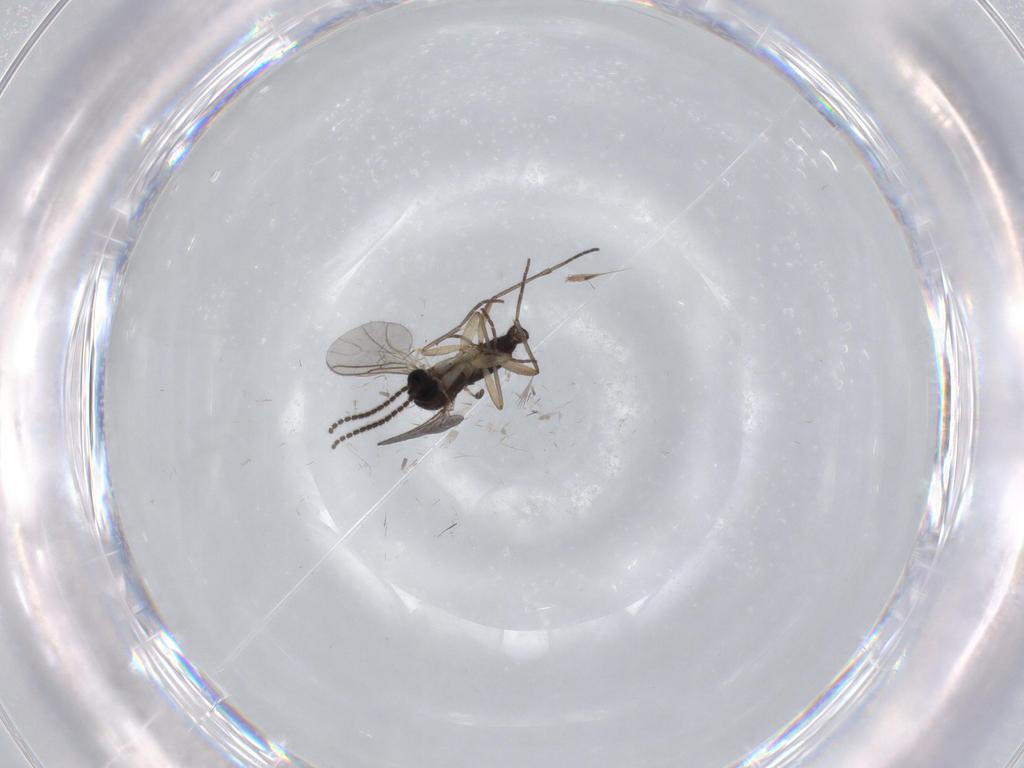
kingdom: Animalia
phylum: Arthropoda
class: Insecta
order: Diptera
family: Sciaridae
